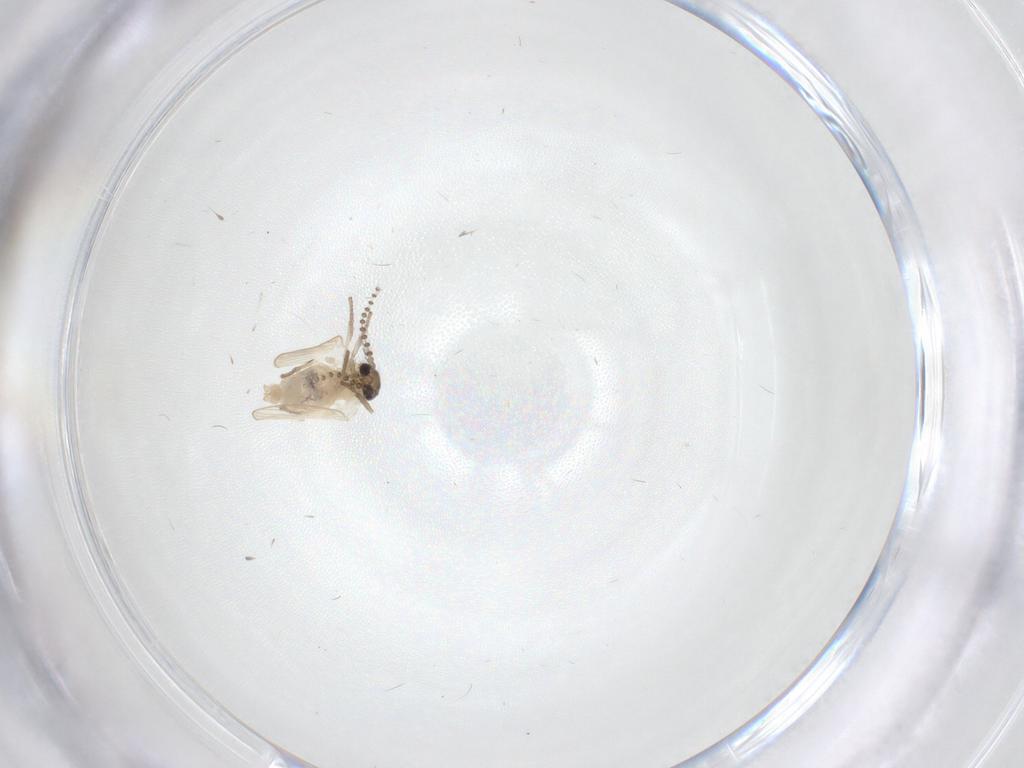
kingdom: Animalia
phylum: Arthropoda
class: Insecta
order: Diptera
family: Psychodidae
